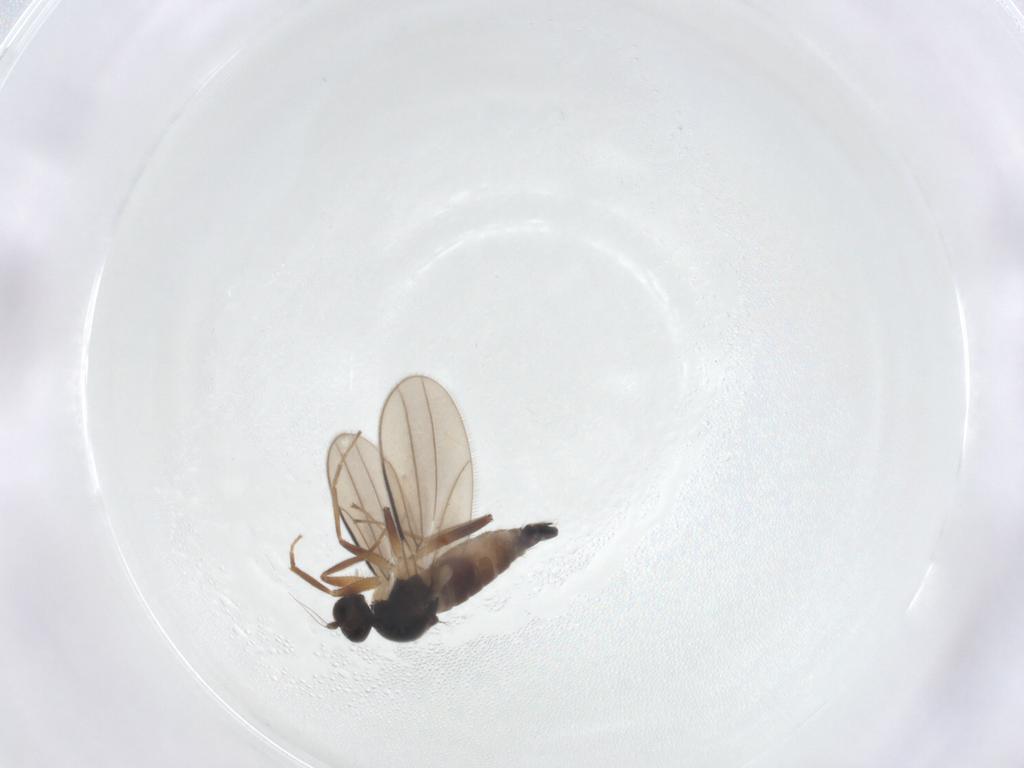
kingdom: Animalia
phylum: Arthropoda
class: Insecta
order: Diptera
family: Hybotidae
